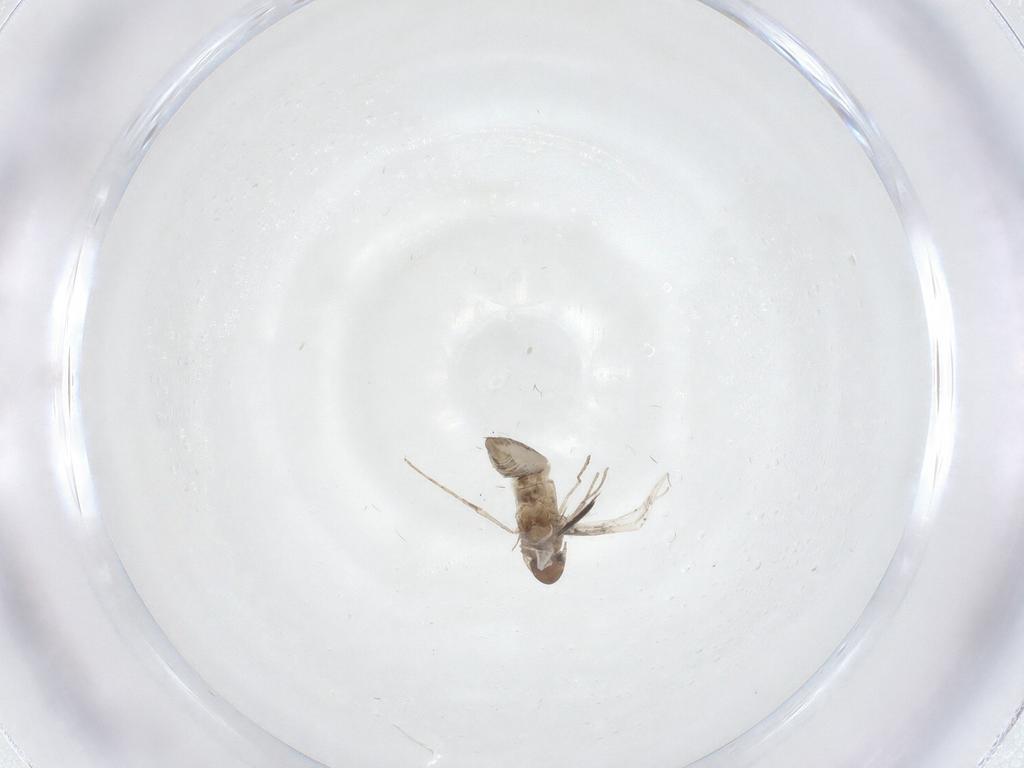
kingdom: Animalia
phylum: Arthropoda
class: Insecta
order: Lepidoptera
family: Gelechiidae
